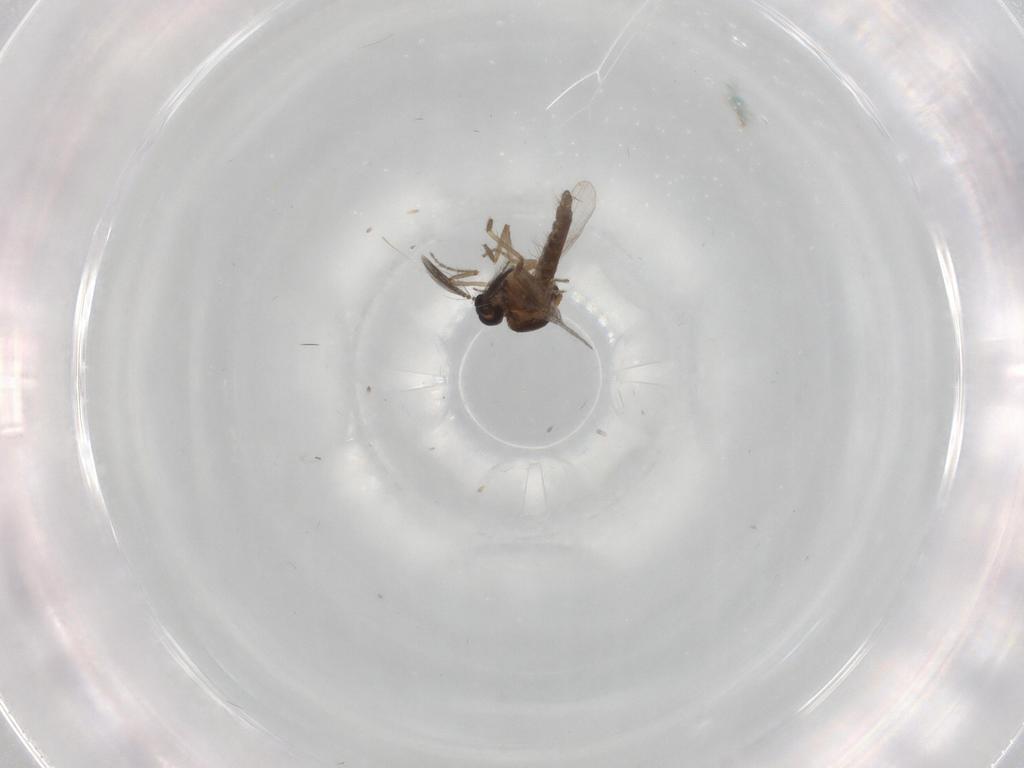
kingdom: Animalia
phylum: Arthropoda
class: Insecta
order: Diptera
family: Ceratopogonidae
